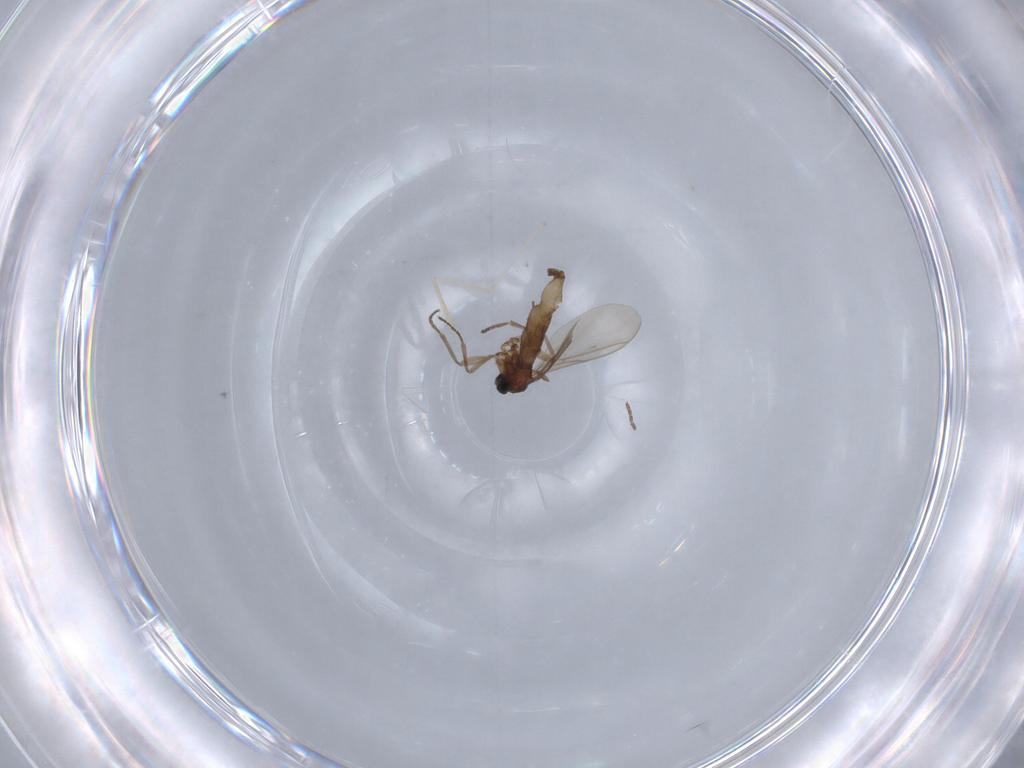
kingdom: Animalia
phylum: Arthropoda
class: Insecta
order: Diptera
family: Cecidomyiidae
